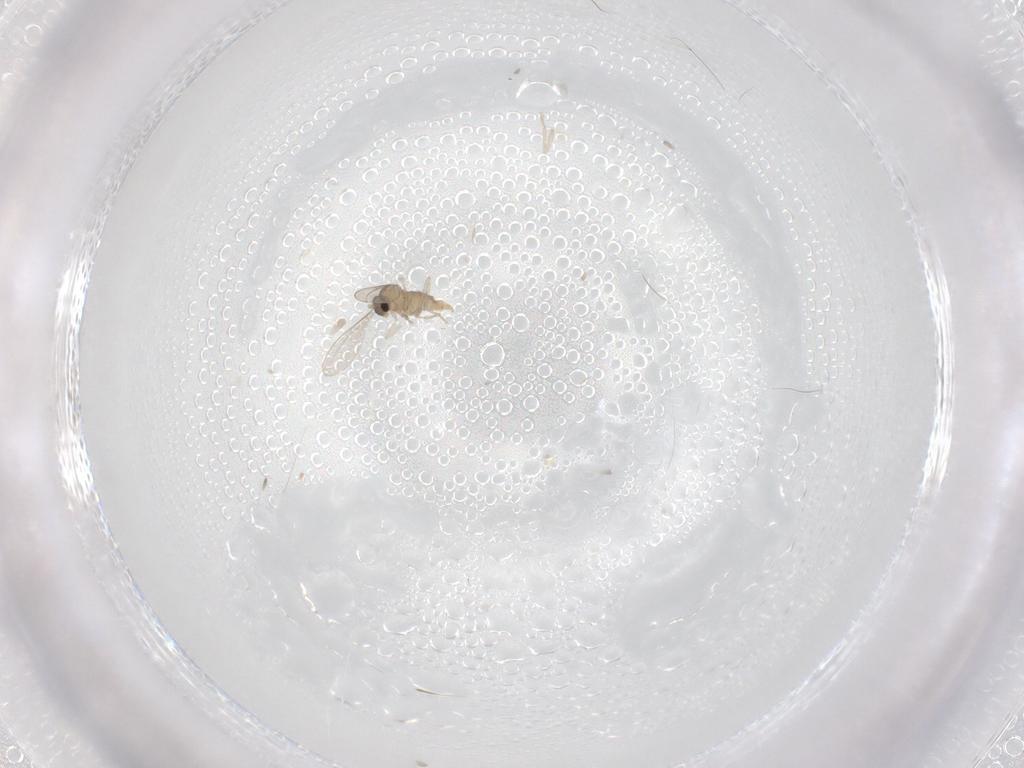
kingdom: Animalia
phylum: Arthropoda
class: Insecta
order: Diptera
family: Cecidomyiidae
